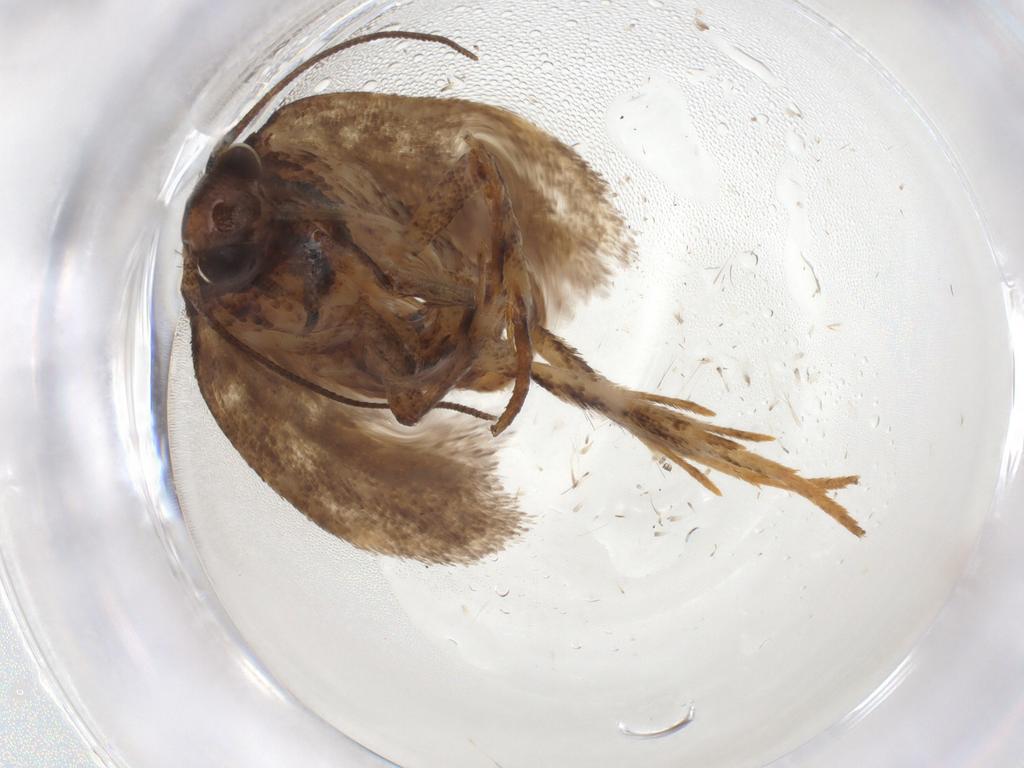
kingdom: Animalia
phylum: Arthropoda
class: Insecta
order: Lepidoptera
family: Gelechiidae
